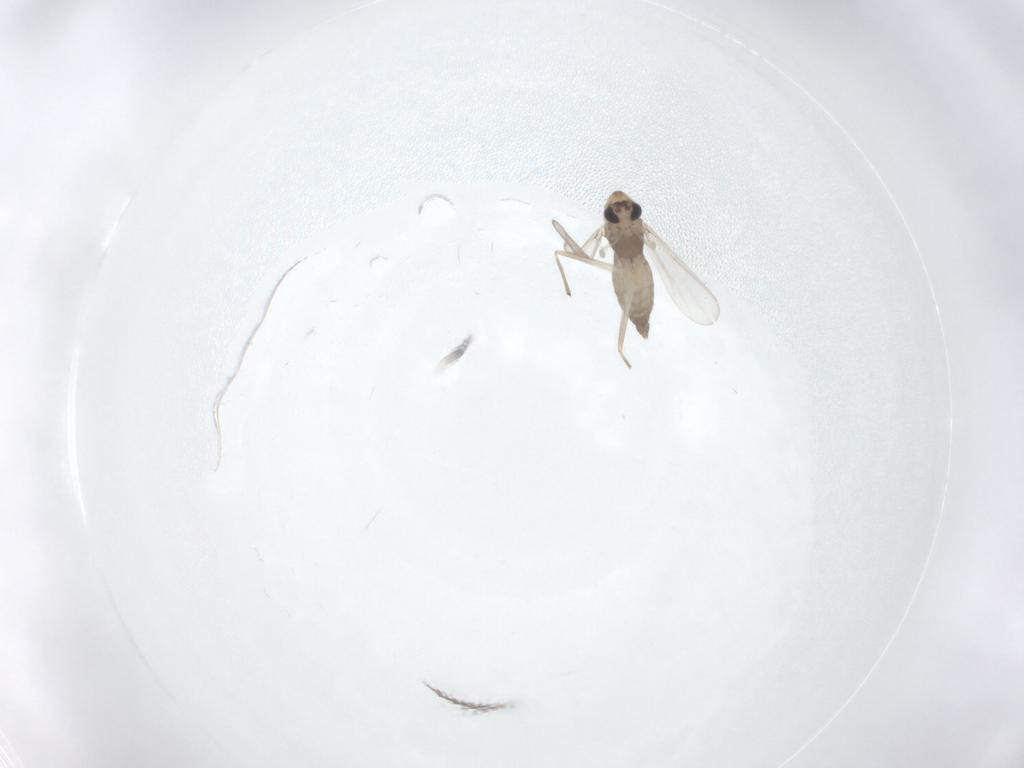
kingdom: Animalia
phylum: Arthropoda
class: Insecta
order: Diptera
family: Chironomidae
